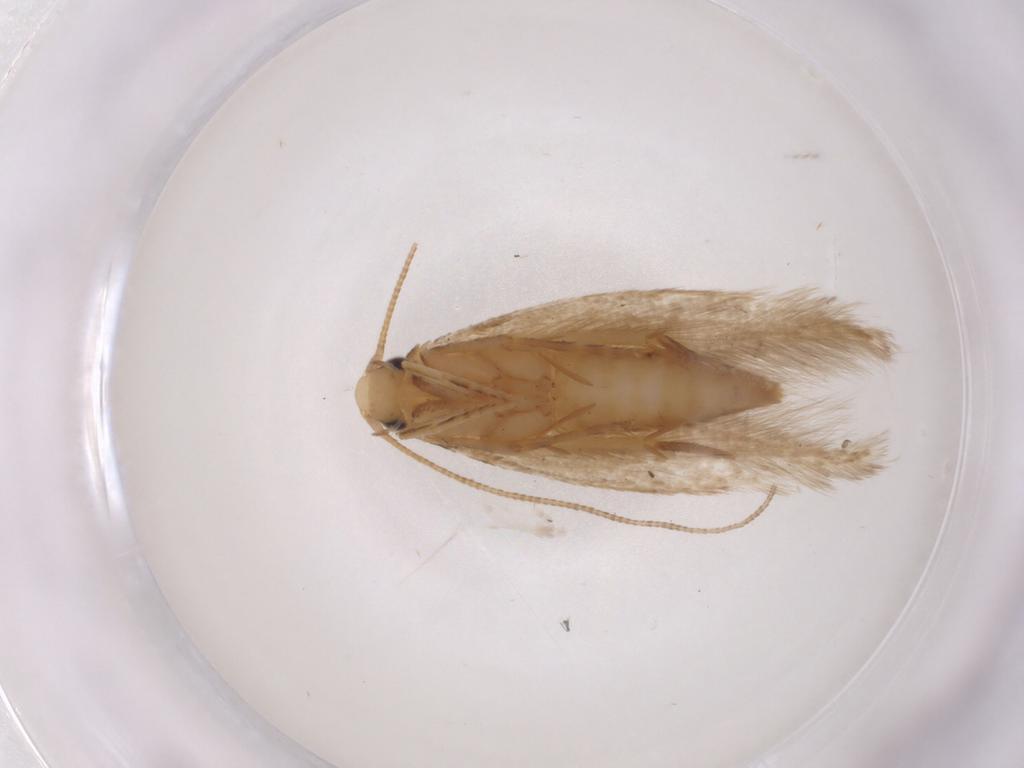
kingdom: Animalia
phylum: Arthropoda
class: Insecta
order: Lepidoptera
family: Tineidae
